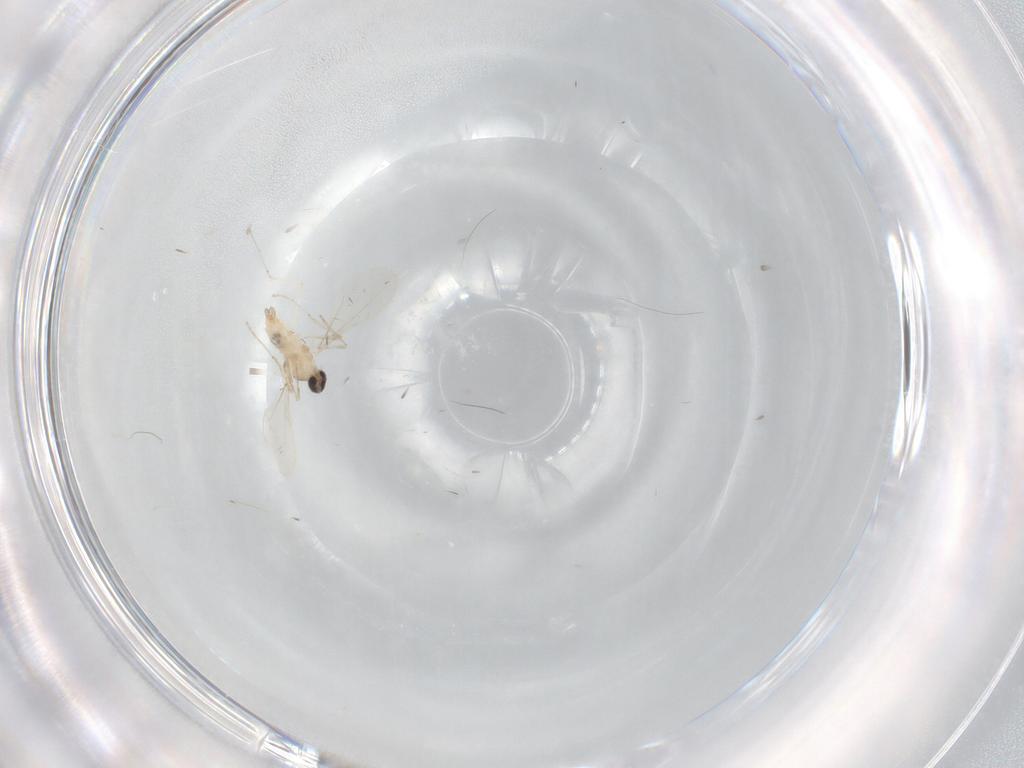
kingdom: Animalia
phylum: Arthropoda
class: Insecta
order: Diptera
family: Cecidomyiidae
